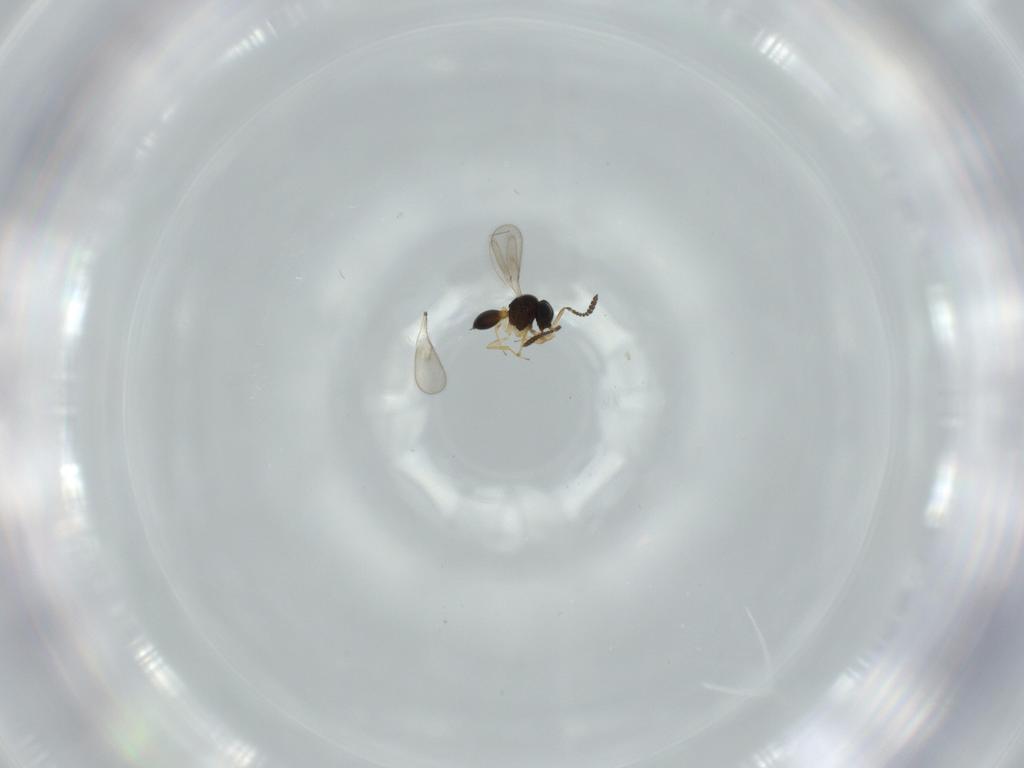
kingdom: Animalia
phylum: Arthropoda
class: Insecta
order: Hymenoptera
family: Scelionidae
